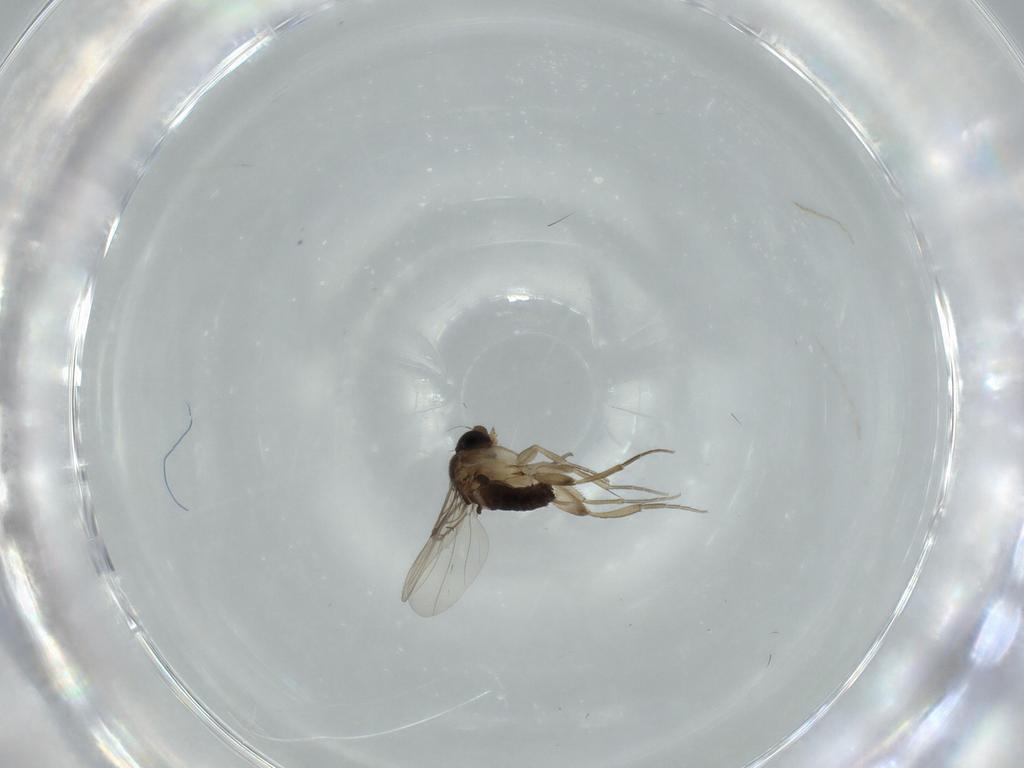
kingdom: Animalia
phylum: Arthropoda
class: Insecta
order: Diptera
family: Phoridae
